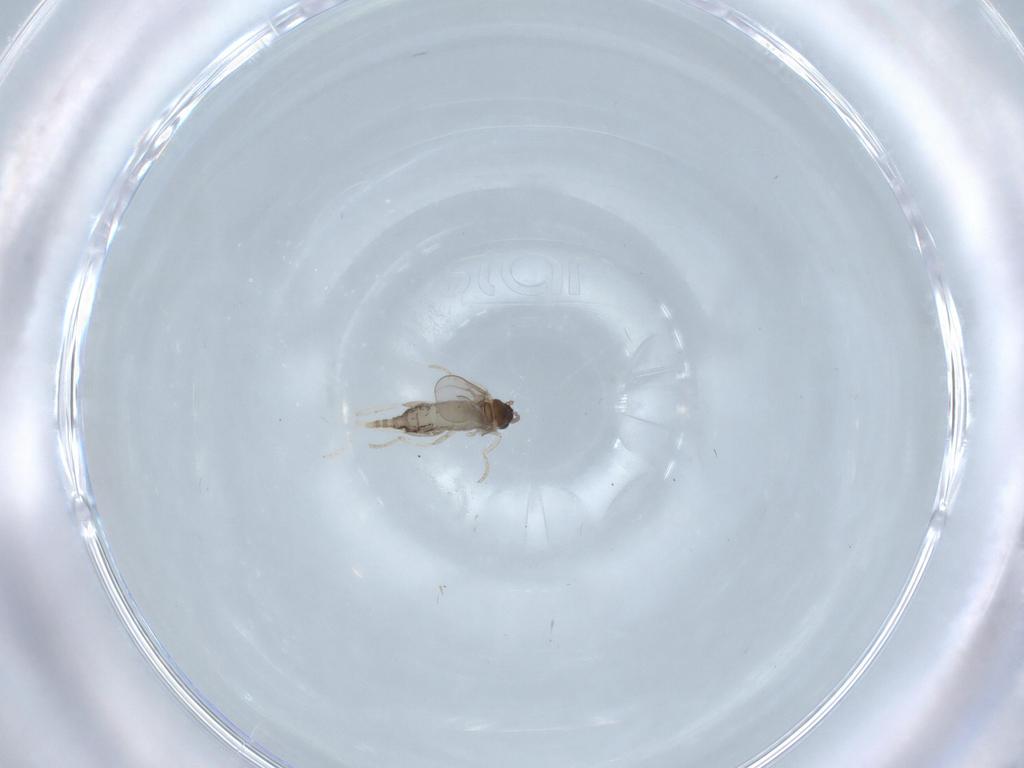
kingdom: Animalia
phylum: Arthropoda
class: Insecta
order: Diptera
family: Cecidomyiidae
